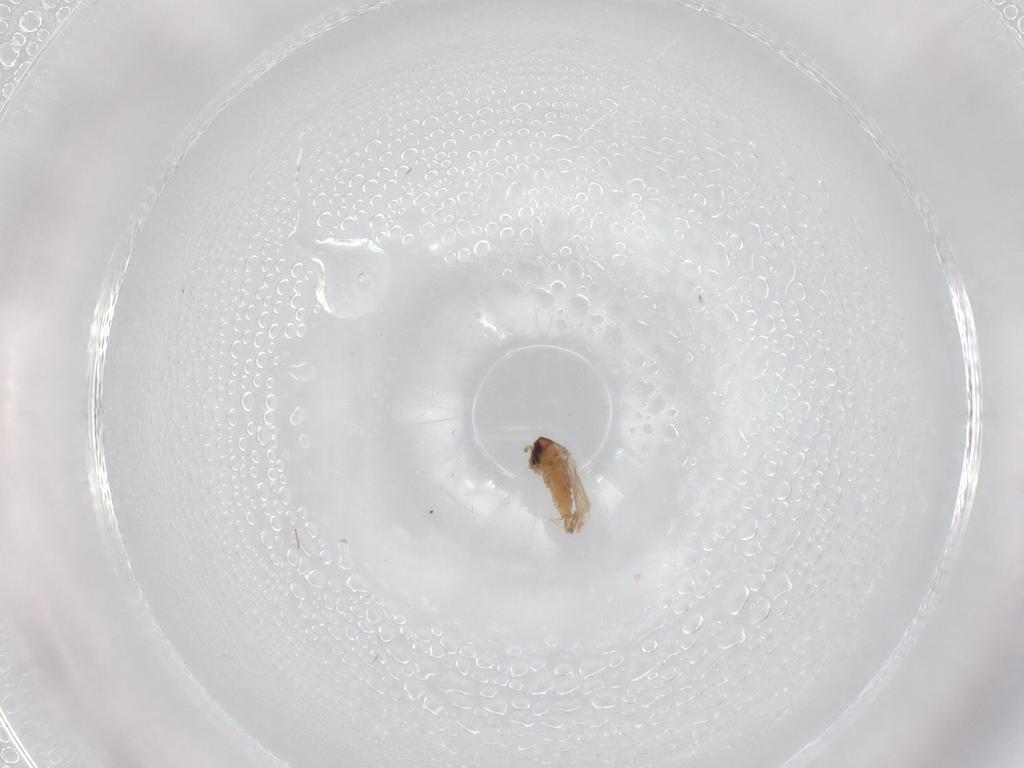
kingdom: Animalia
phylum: Arthropoda
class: Insecta
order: Diptera
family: Psychodidae
